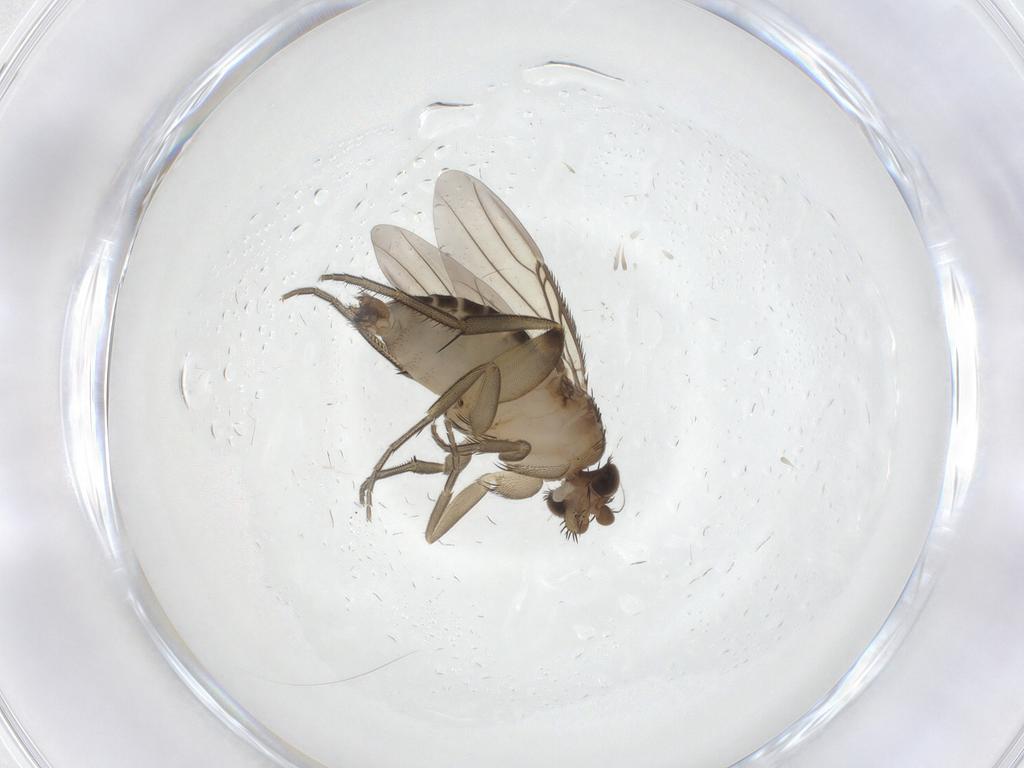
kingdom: Animalia
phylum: Arthropoda
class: Insecta
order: Diptera
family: Phoridae
